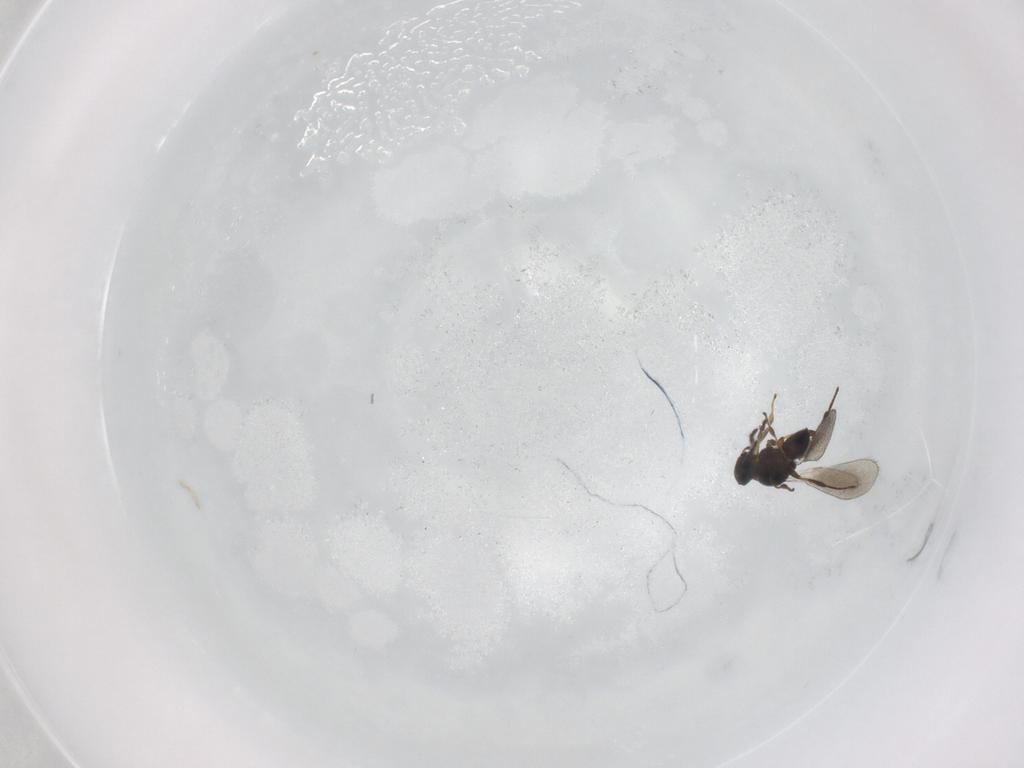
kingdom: Animalia
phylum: Arthropoda
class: Insecta
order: Hymenoptera
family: Platygastridae
